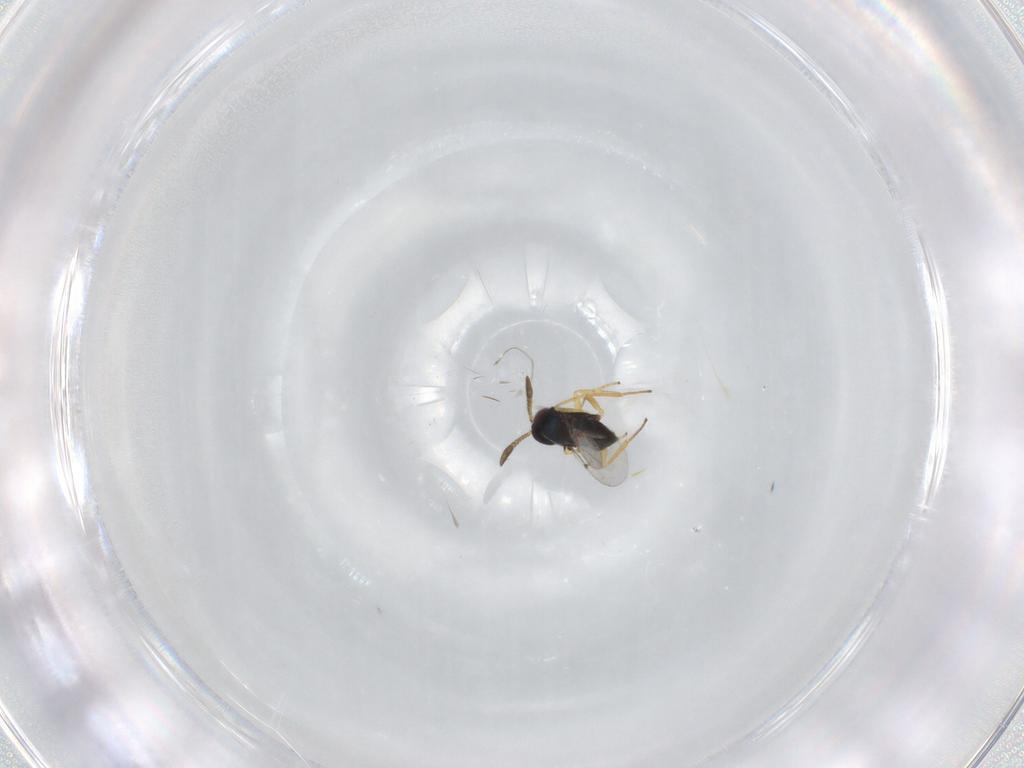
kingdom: Animalia
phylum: Arthropoda
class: Insecta
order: Hymenoptera
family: Encyrtidae
